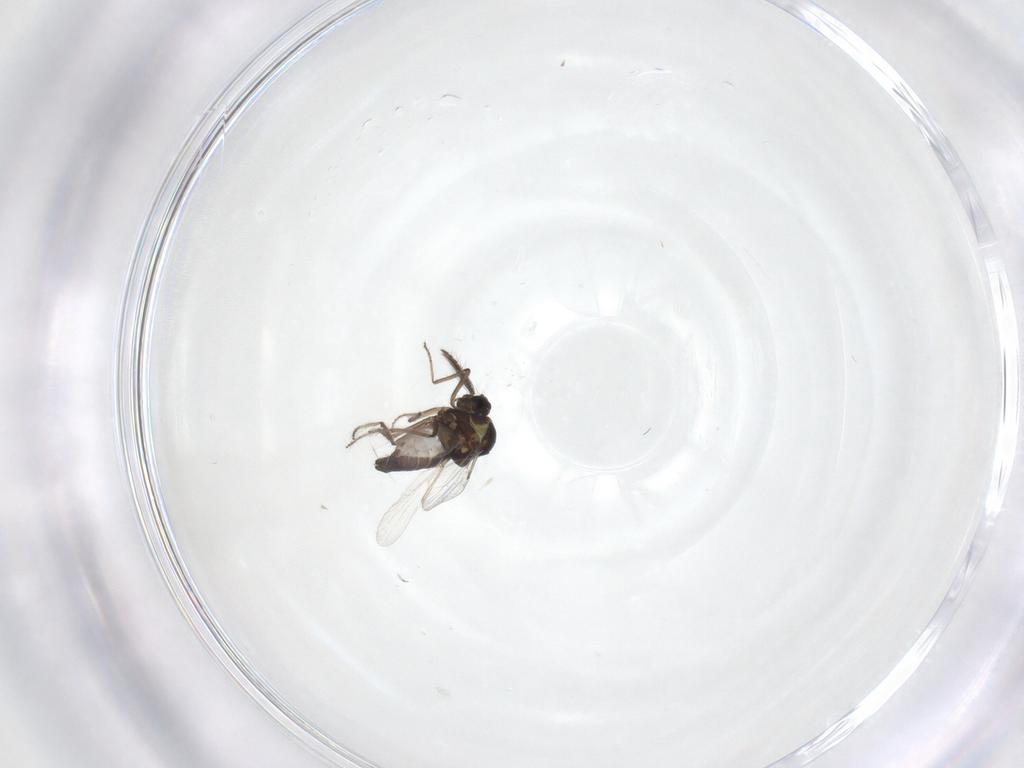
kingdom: Animalia
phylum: Arthropoda
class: Insecta
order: Diptera
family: Ceratopogonidae
